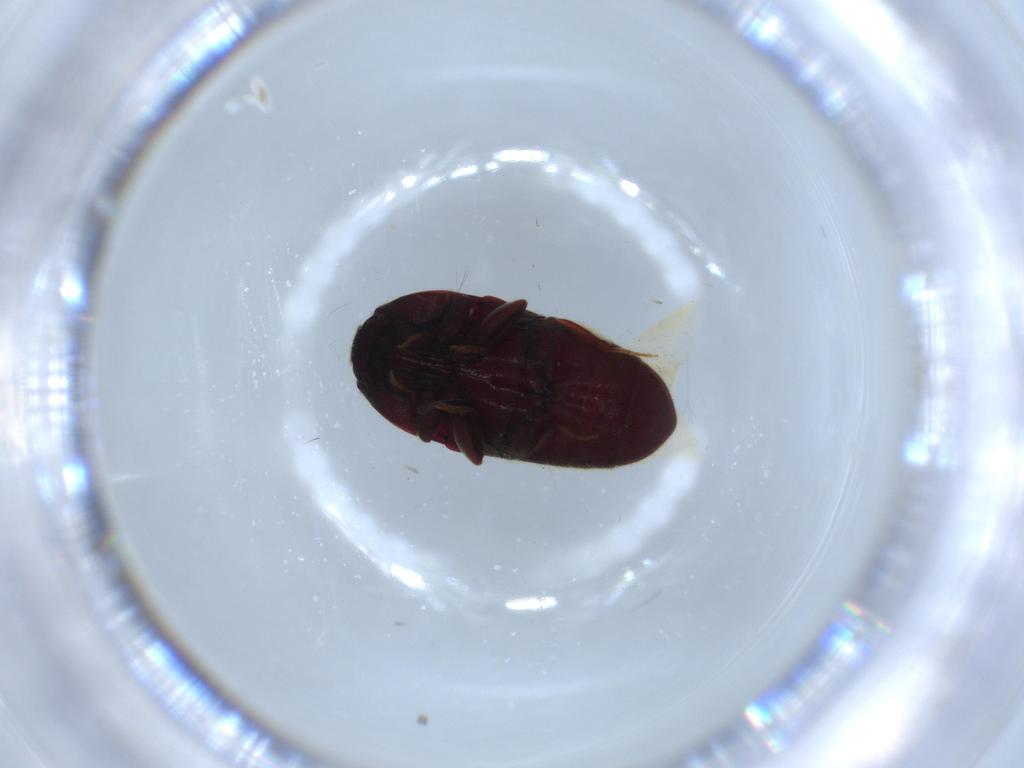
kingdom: Animalia
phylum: Arthropoda
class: Insecta
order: Coleoptera
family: Throscidae
